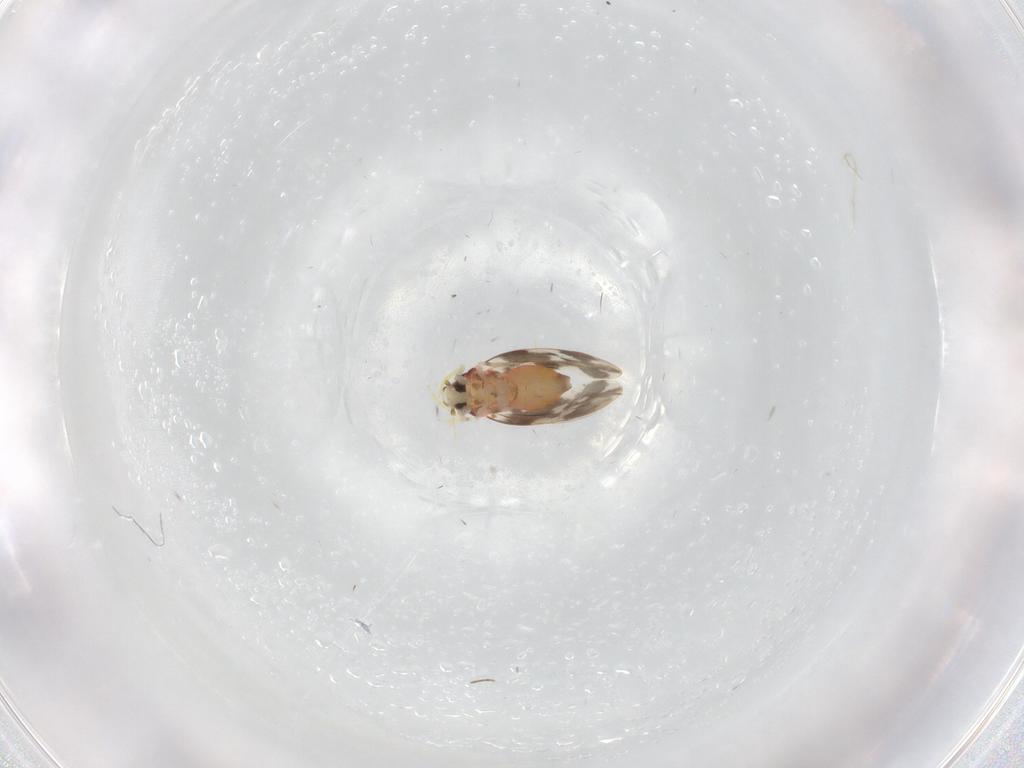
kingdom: Animalia
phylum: Arthropoda
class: Insecta
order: Hemiptera
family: Aleyrodidae
